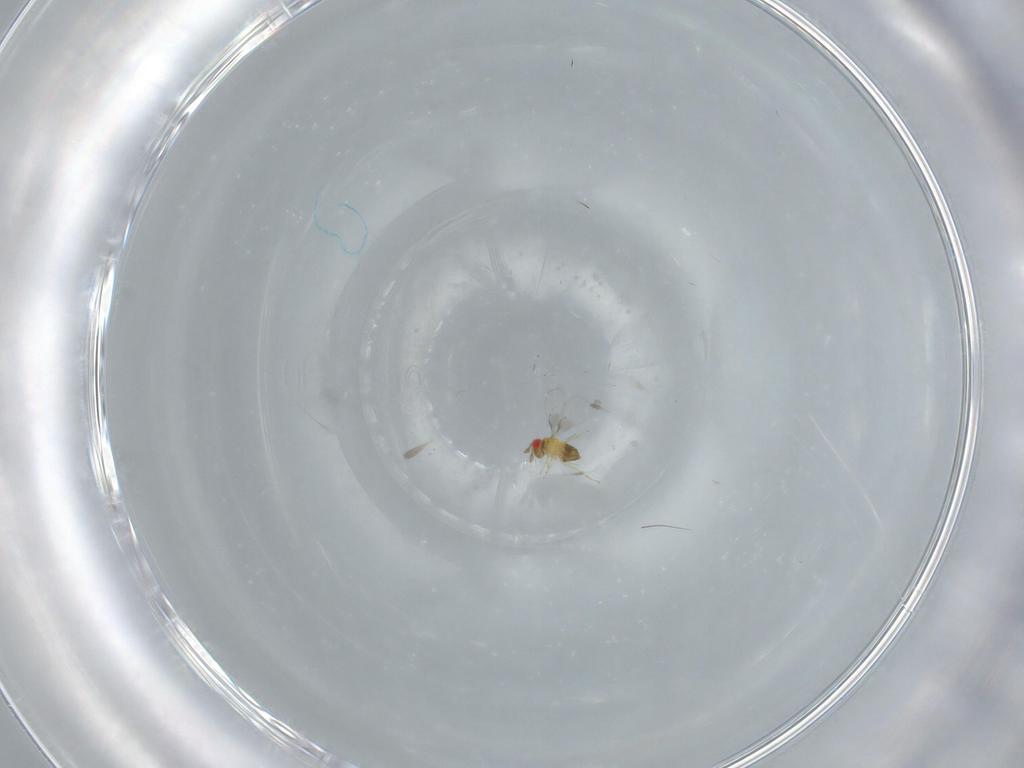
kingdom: Animalia
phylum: Arthropoda
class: Insecta
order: Hymenoptera
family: Trichogrammatidae
